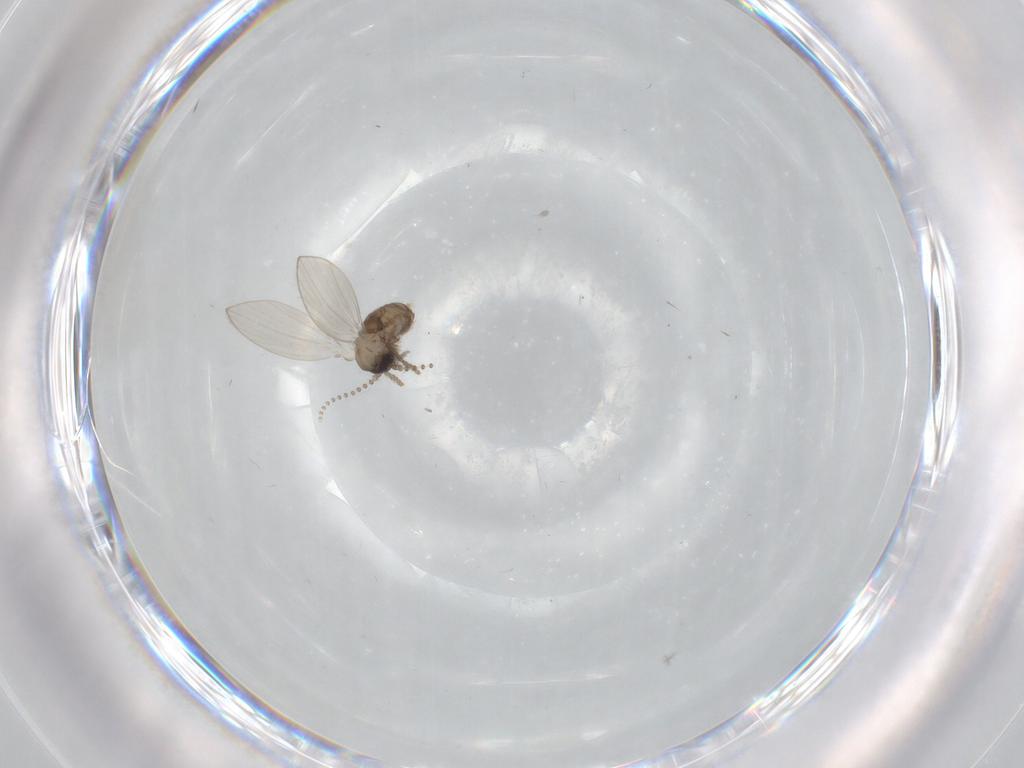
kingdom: Animalia
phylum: Arthropoda
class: Insecta
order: Diptera
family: Psychodidae
